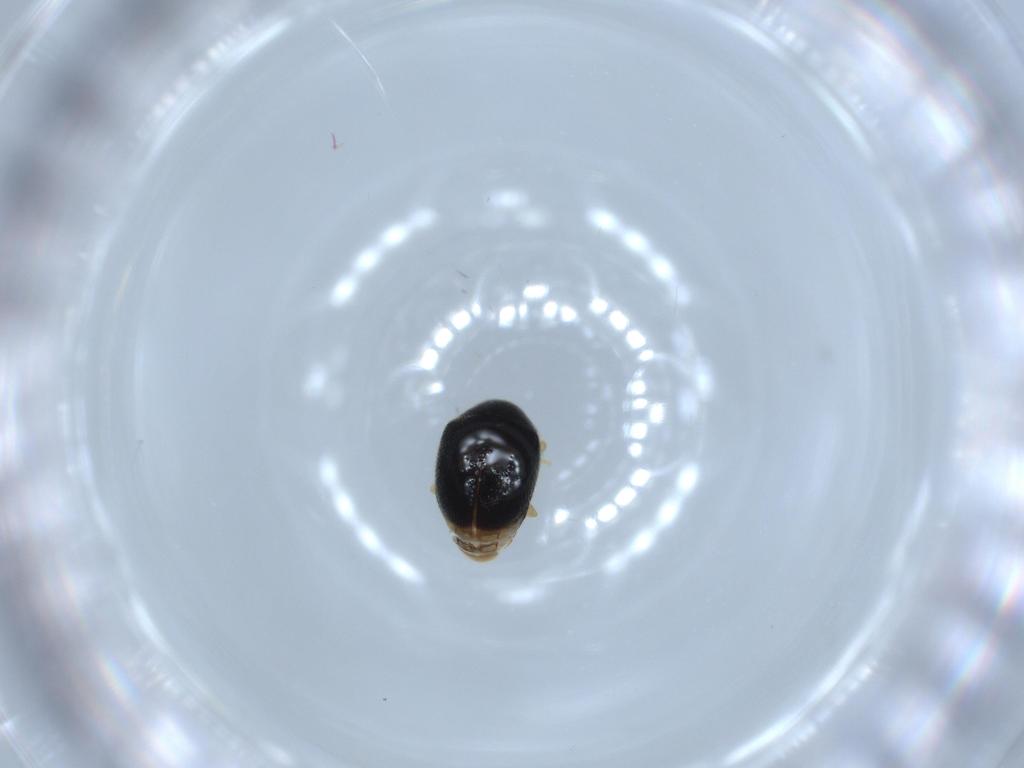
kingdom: Animalia
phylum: Arthropoda
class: Insecta
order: Coleoptera
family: Coccinellidae
